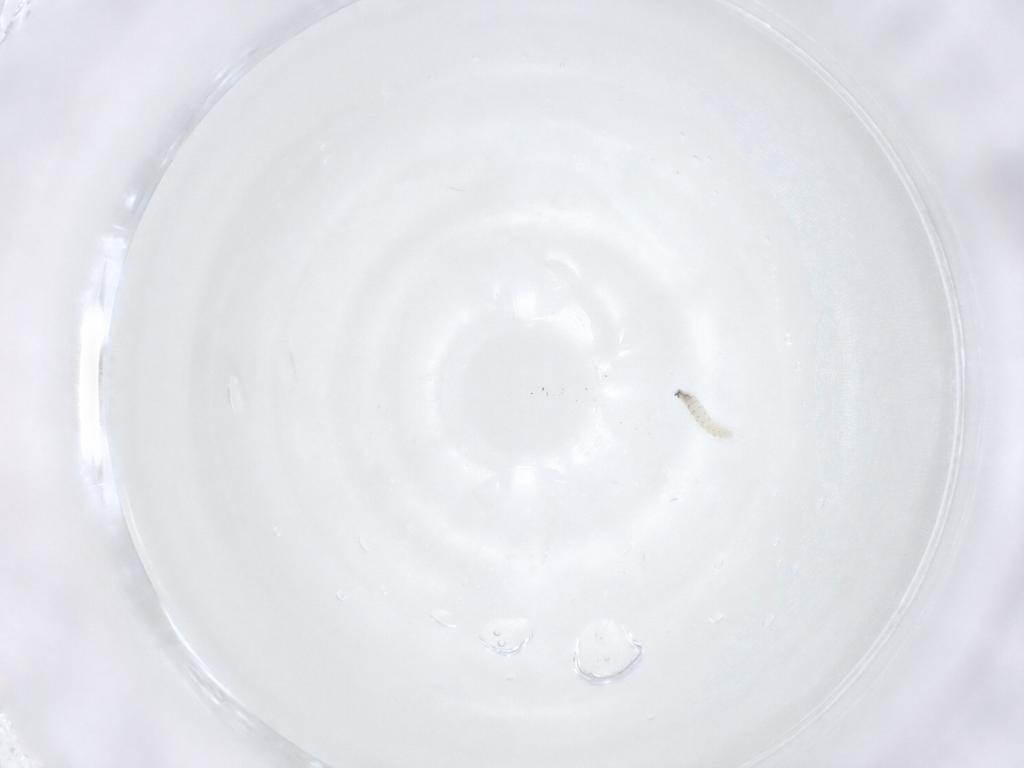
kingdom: Animalia
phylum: Arthropoda
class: Insecta
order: Diptera
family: Sarcophagidae
